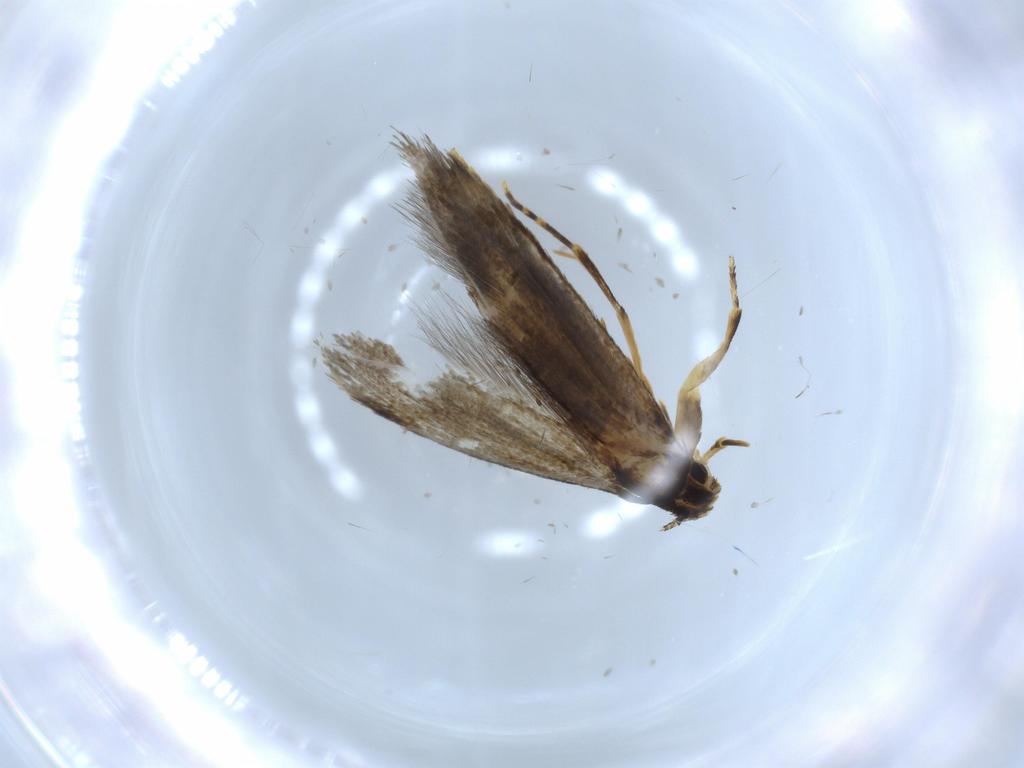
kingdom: Animalia
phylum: Arthropoda
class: Insecta
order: Lepidoptera
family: Tineidae
